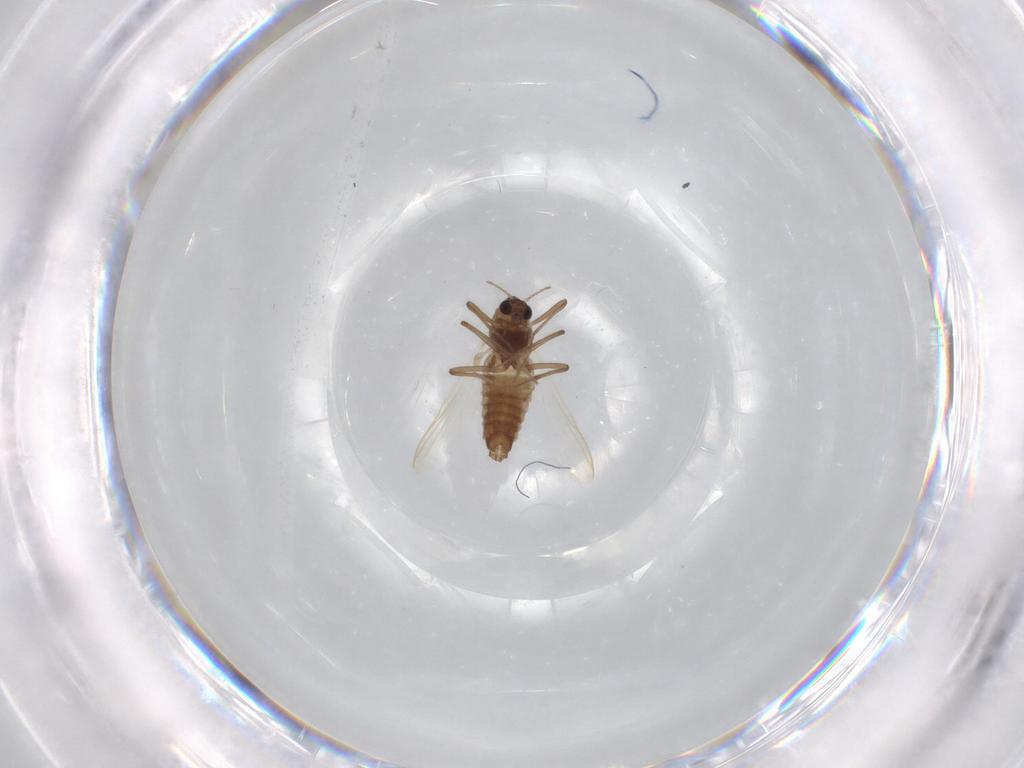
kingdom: Animalia
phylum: Arthropoda
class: Insecta
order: Diptera
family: Chironomidae
